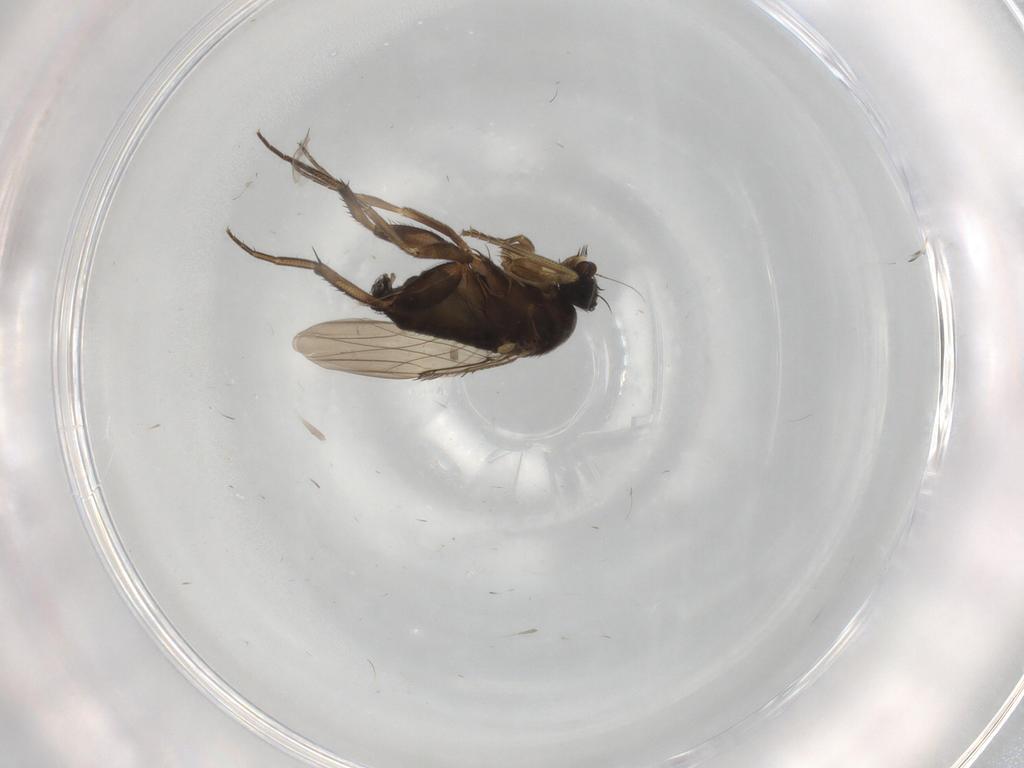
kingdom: Animalia
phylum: Arthropoda
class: Insecta
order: Diptera
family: Phoridae
